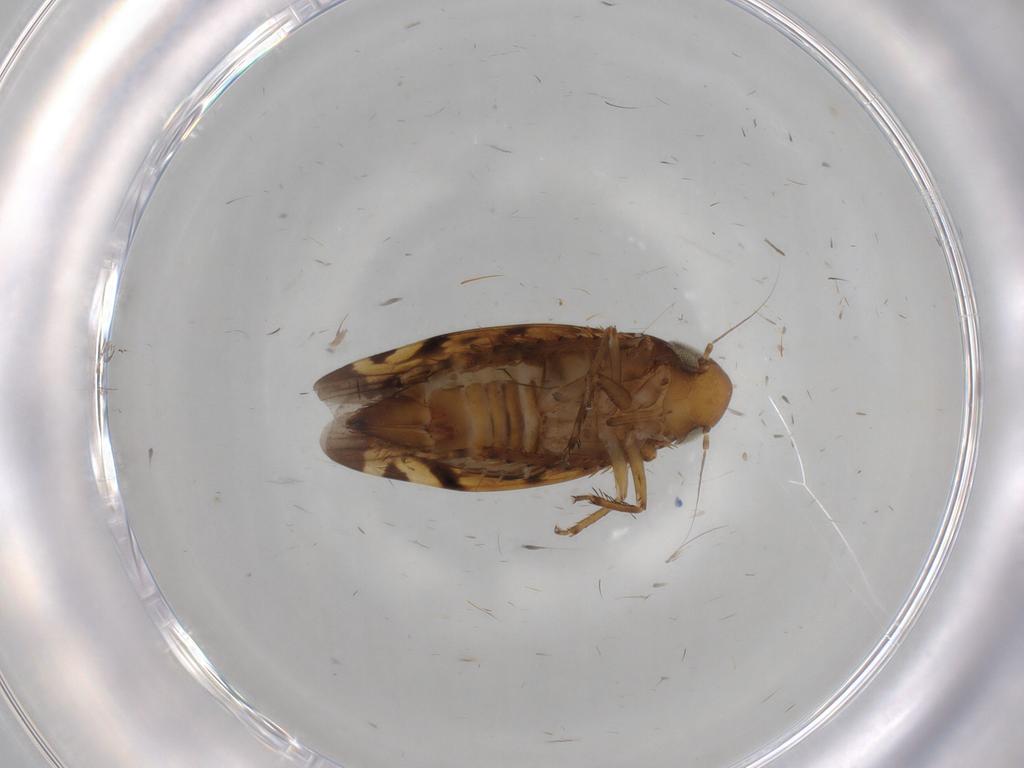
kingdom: Animalia
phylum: Arthropoda
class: Insecta
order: Hemiptera
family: Cicadellidae
